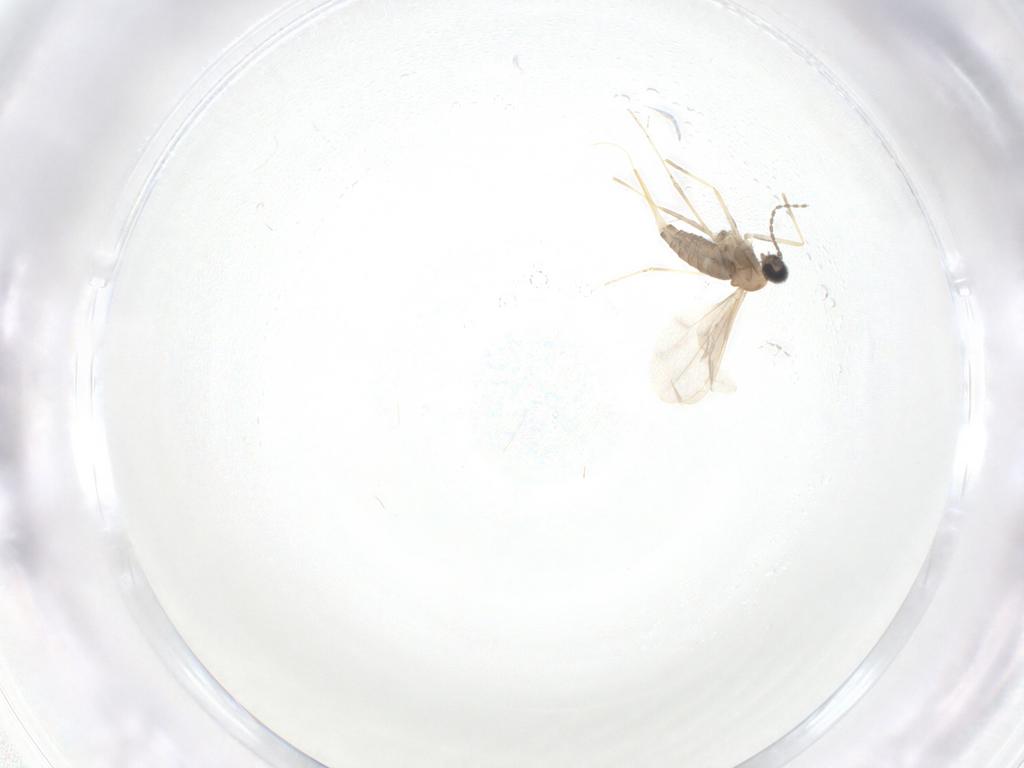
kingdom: Animalia
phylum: Arthropoda
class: Insecta
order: Diptera
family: Cecidomyiidae
